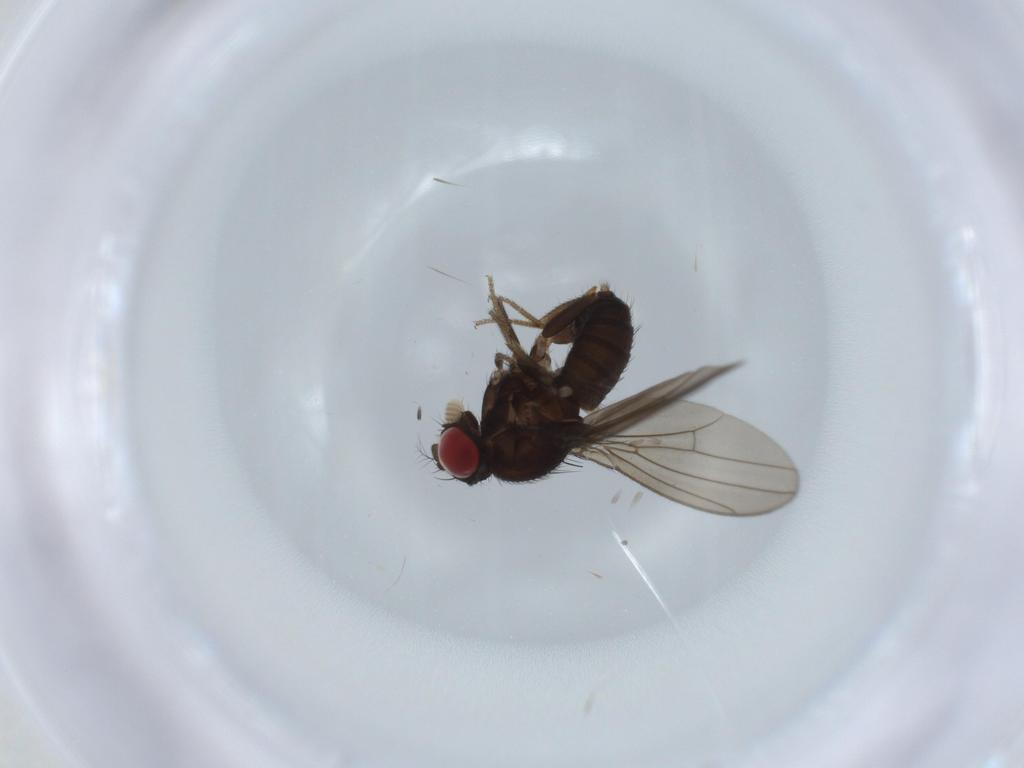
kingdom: Animalia
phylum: Arthropoda
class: Insecta
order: Diptera
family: Drosophilidae
